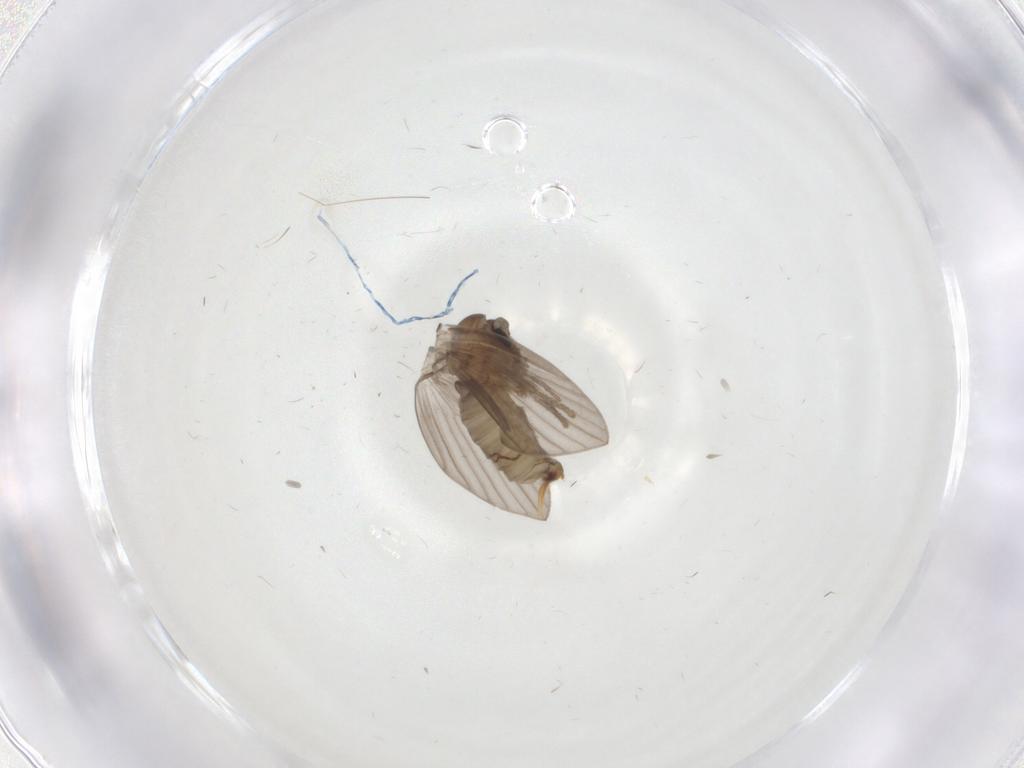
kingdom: Animalia
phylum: Arthropoda
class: Insecta
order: Diptera
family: Psychodidae
